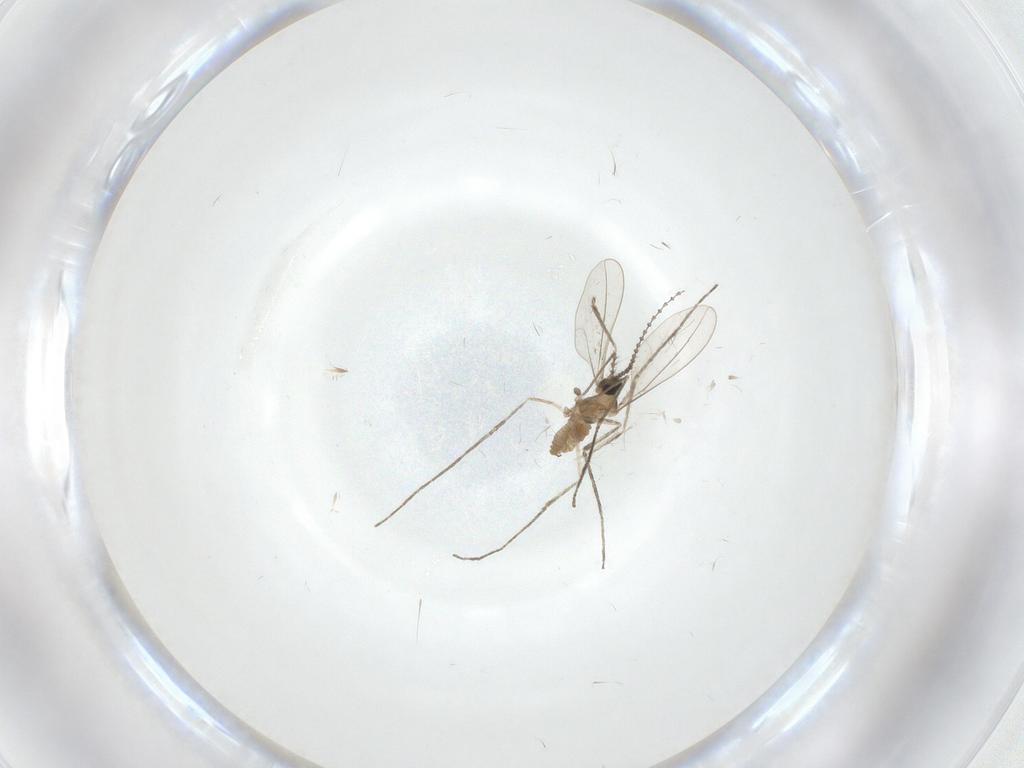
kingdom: Animalia
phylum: Arthropoda
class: Insecta
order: Diptera
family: Cecidomyiidae
